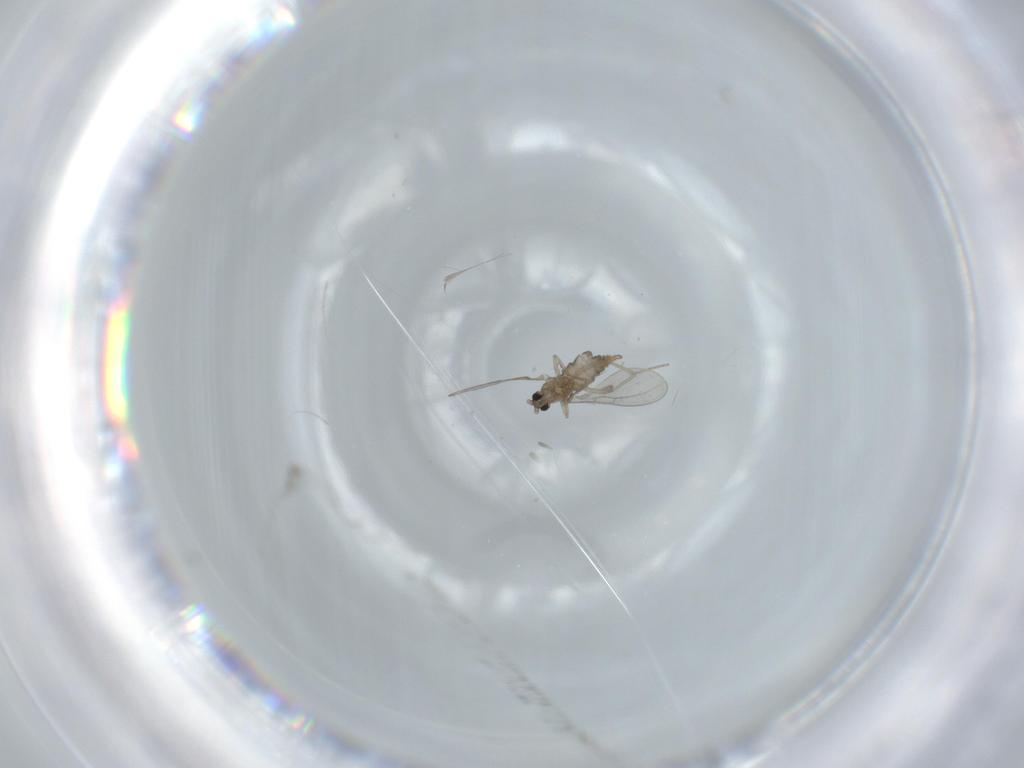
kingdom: Animalia
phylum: Arthropoda
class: Insecta
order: Diptera
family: Cecidomyiidae
